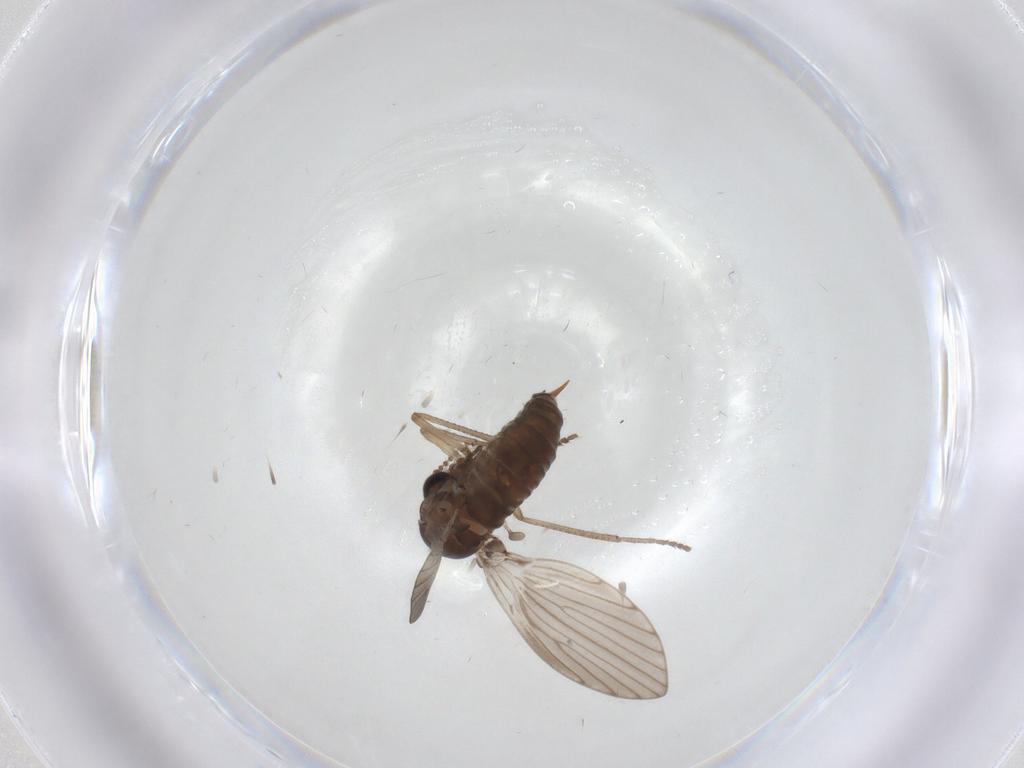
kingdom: Animalia
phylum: Arthropoda
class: Insecta
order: Diptera
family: Psychodidae
